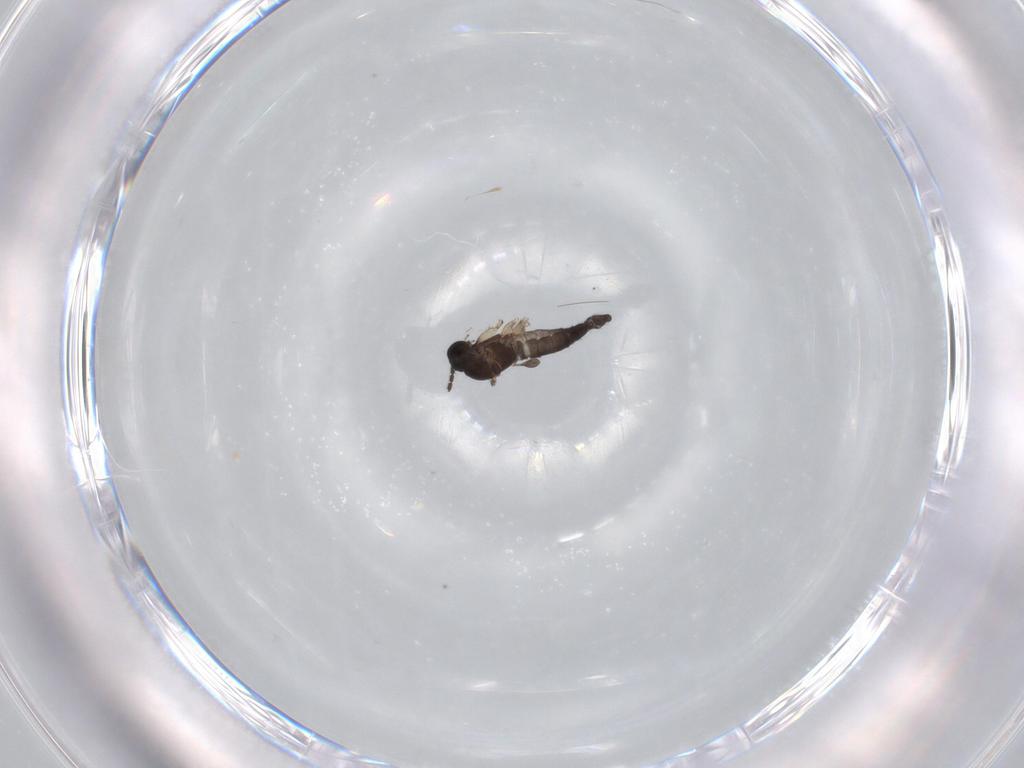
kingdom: Animalia
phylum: Arthropoda
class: Insecta
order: Diptera
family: Sciaridae
